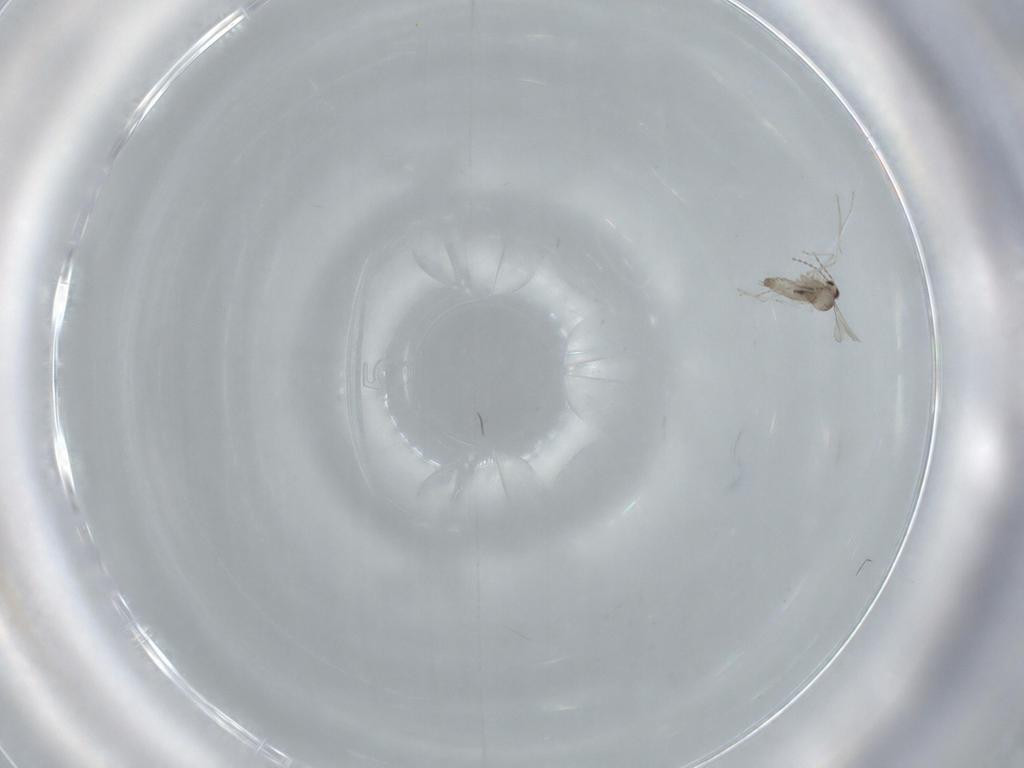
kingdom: Animalia
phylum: Arthropoda
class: Insecta
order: Diptera
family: Cecidomyiidae
